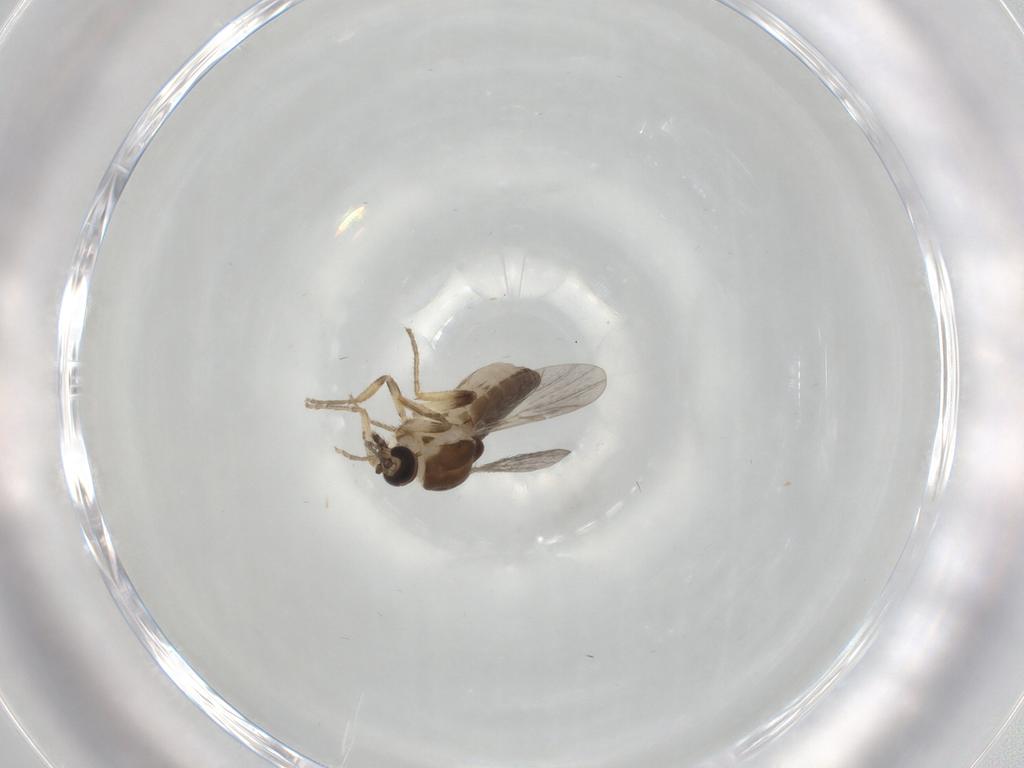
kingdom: Animalia
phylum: Arthropoda
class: Insecta
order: Diptera
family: Ceratopogonidae
